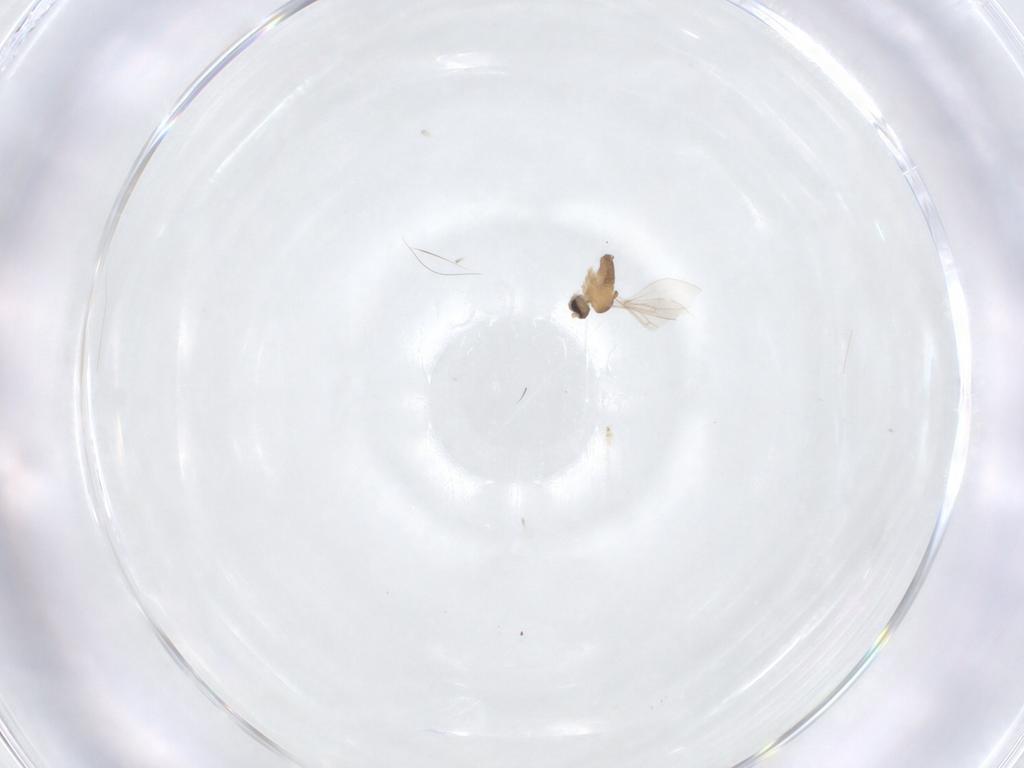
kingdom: Animalia
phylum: Arthropoda
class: Insecta
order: Diptera
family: Cecidomyiidae
